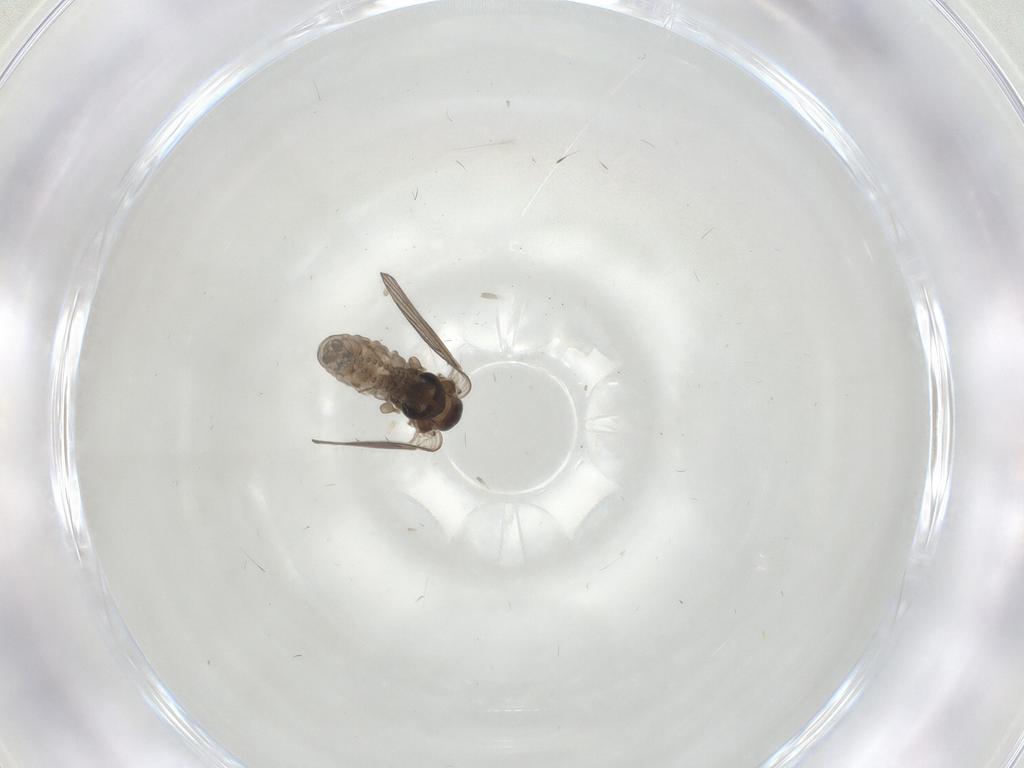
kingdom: Animalia
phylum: Arthropoda
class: Insecta
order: Diptera
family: Psychodidae
